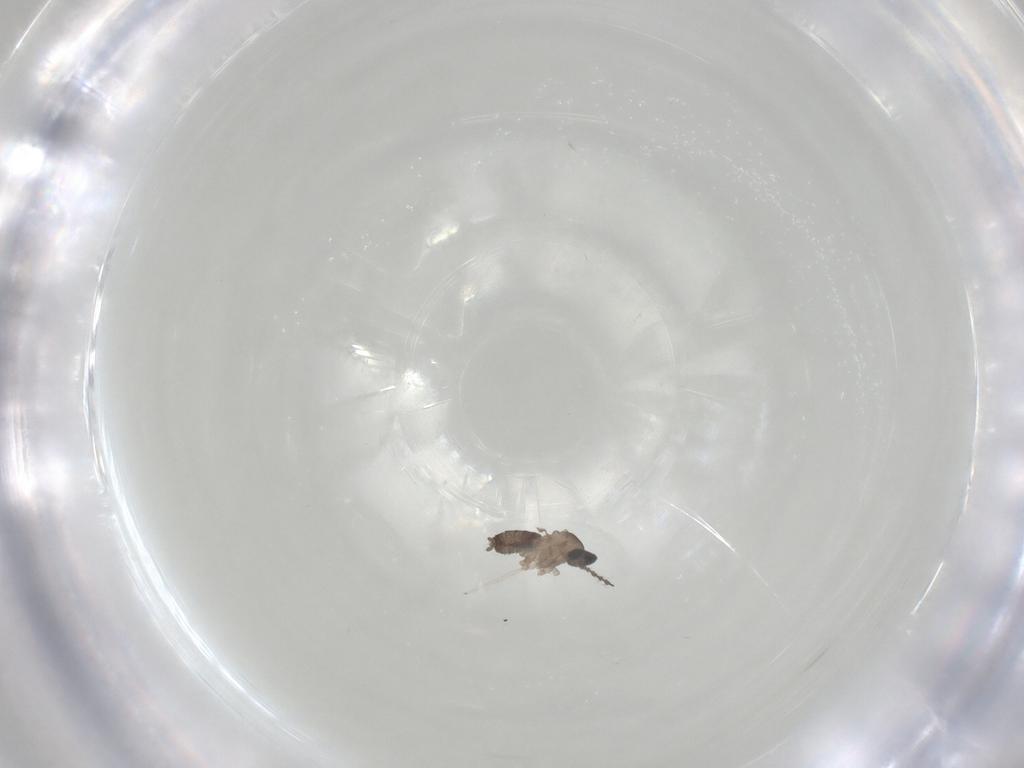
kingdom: Animalia
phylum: Arthropoda
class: Insecta
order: Diptera
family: Cecidomyiidae
